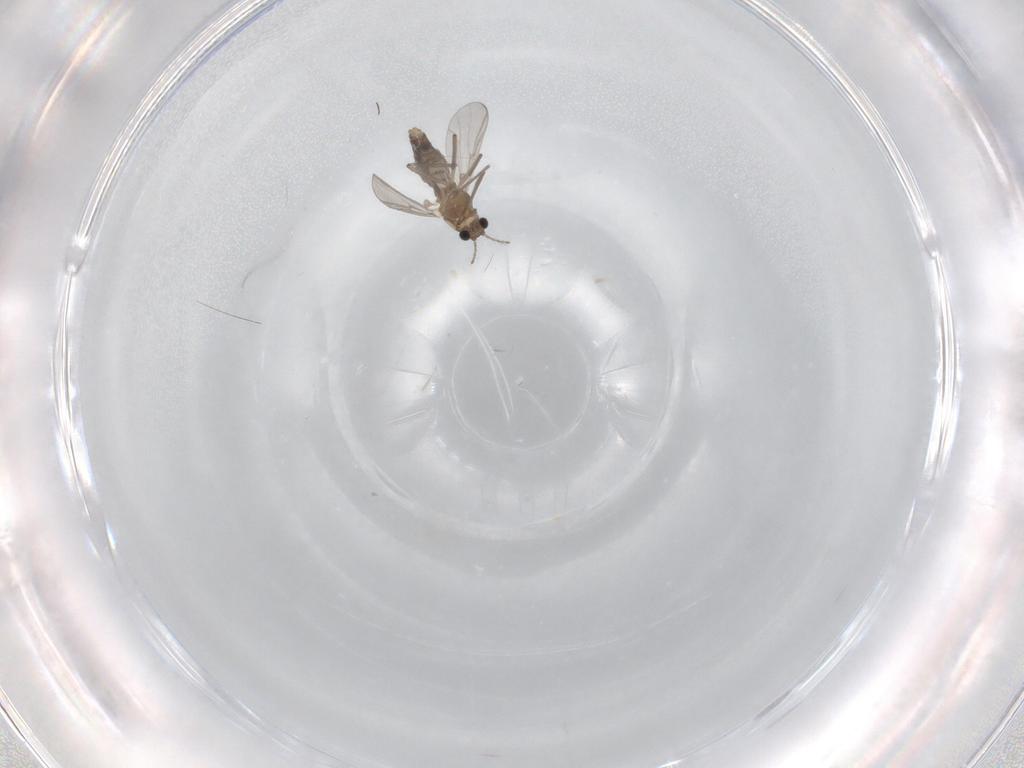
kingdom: Animalia
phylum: Arthropoda
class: Insecta
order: Diptera
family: Chironomidae
